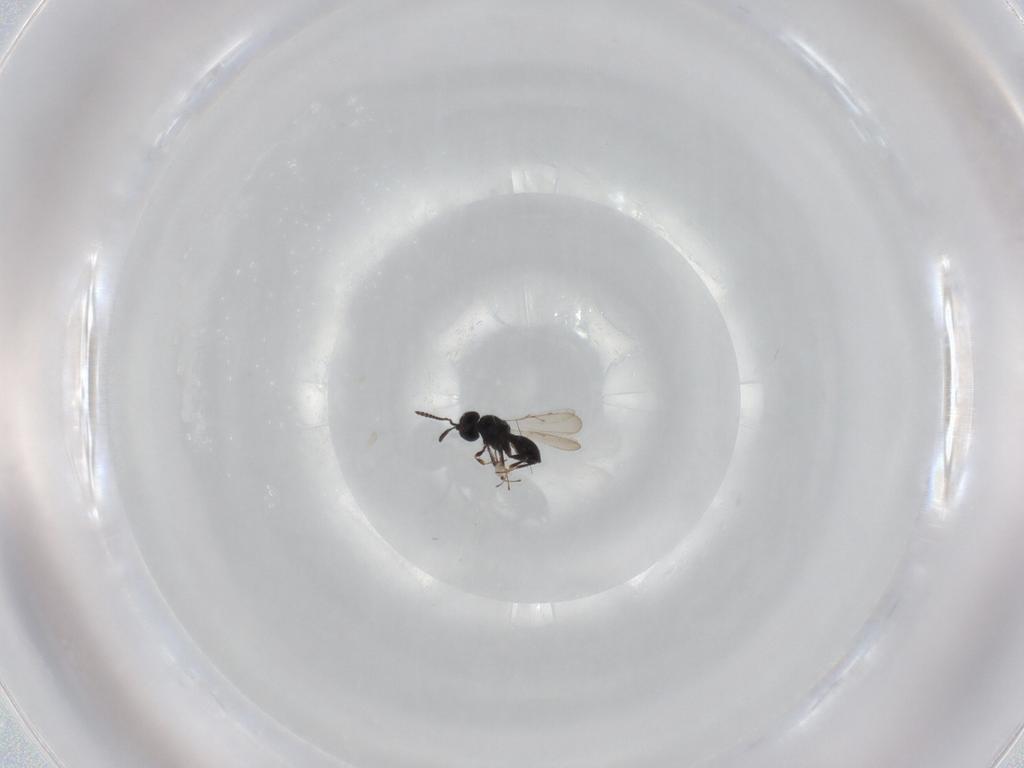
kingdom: Animalia
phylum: Arthropoda
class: Insecta
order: Hymenoptera
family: Scelionidae
